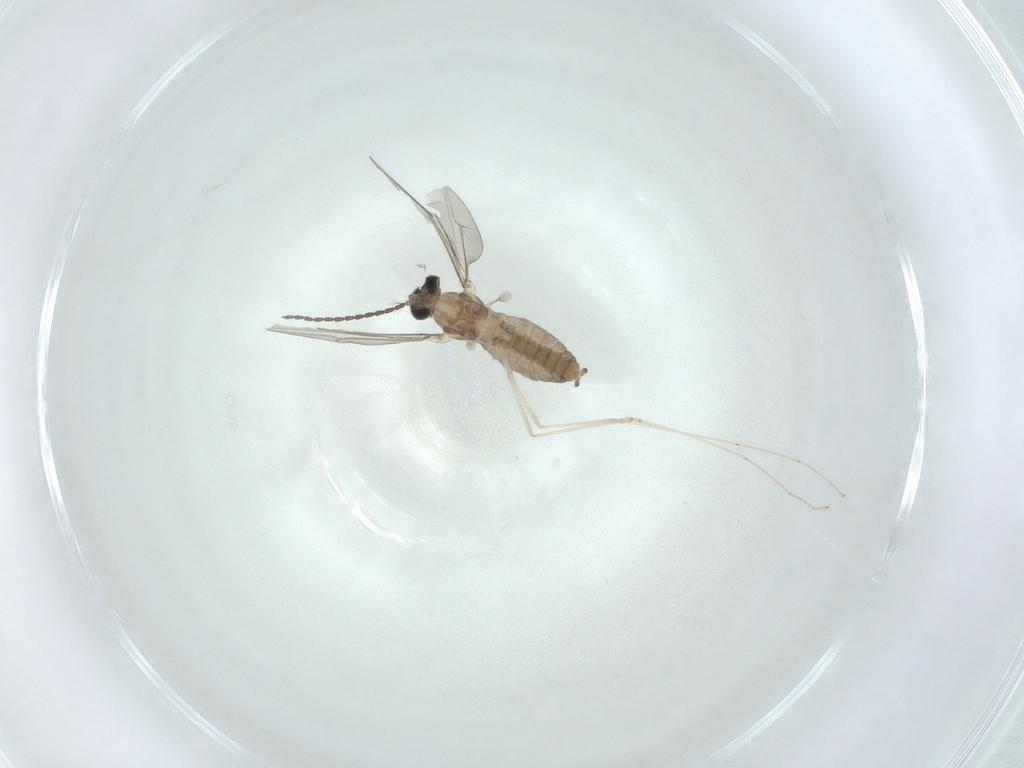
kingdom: Animalia
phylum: Arthropoda
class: Insecta
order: Diptera
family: Cecidomyiidae
